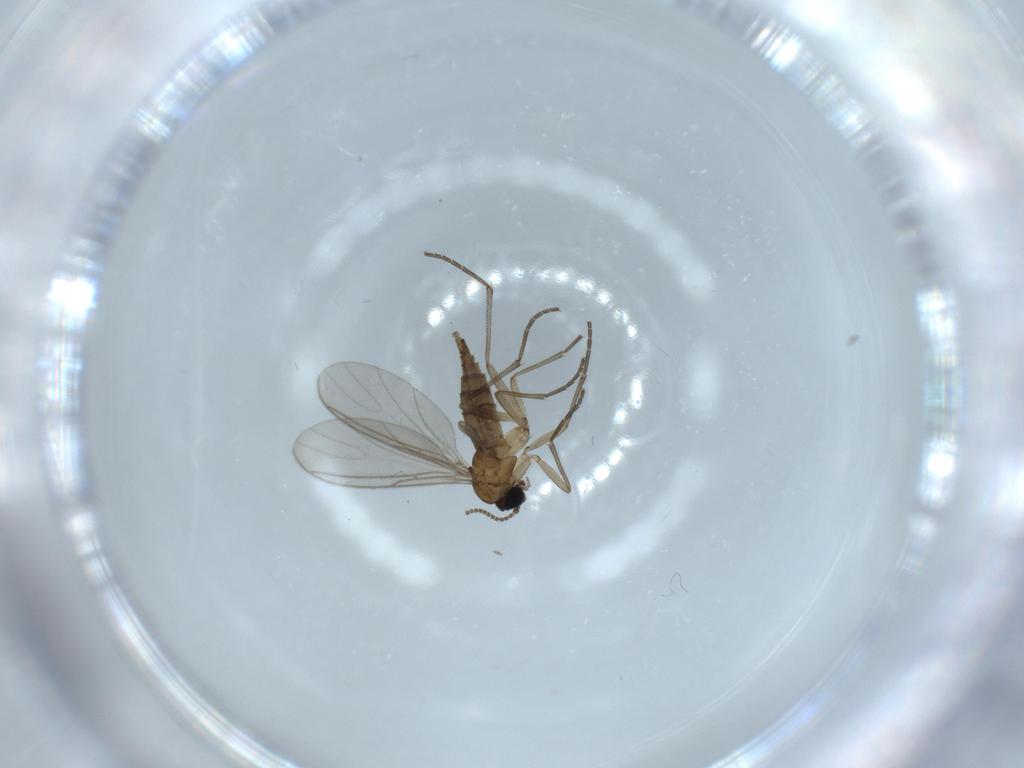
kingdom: Animalia
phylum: Arthropoda
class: Insecta
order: Diptera
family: Sciaridae
